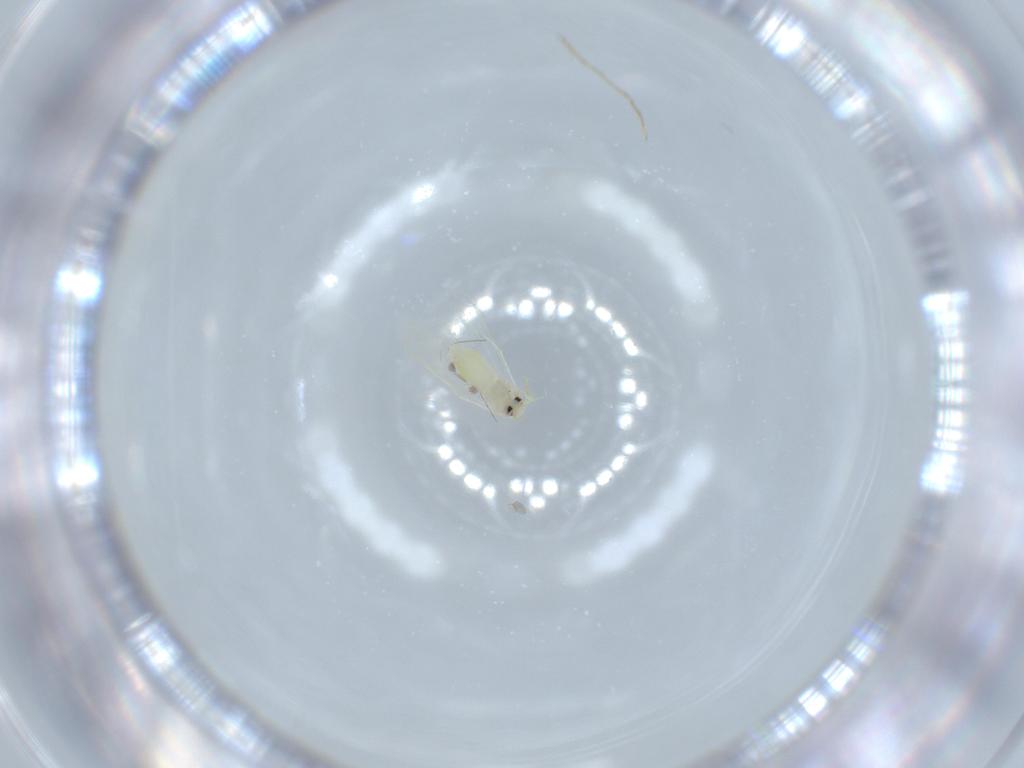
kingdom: Animalia
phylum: Arthropoda
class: Insecta
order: Hemiptera
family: Aleyrodidae
